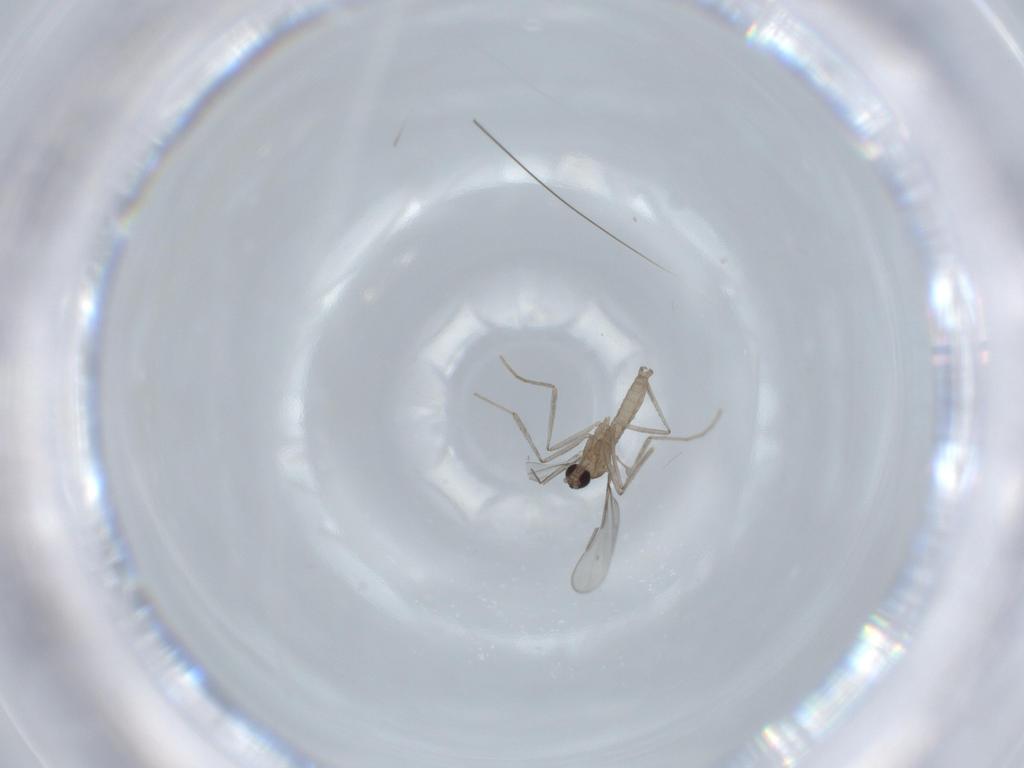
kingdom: Animalia
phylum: Arthropoda
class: Insecta
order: Diptera
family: Cecidomyiidae
